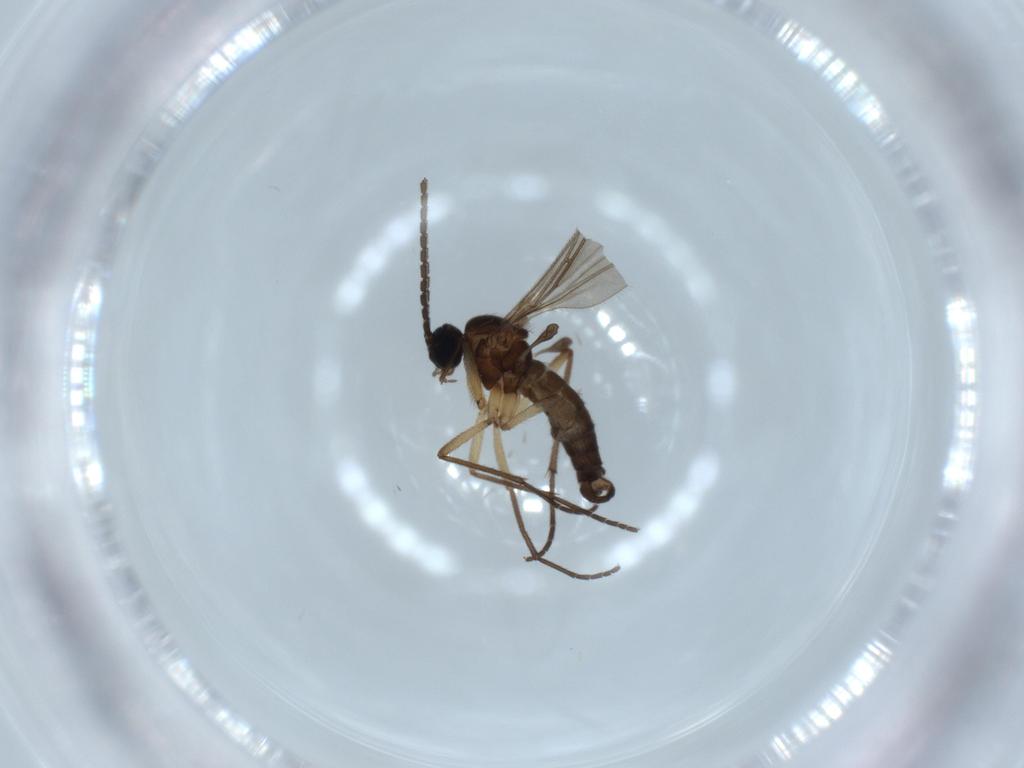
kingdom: Animalia
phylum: Arthropoda
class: Insecta
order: Diptera
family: Sciaridae
